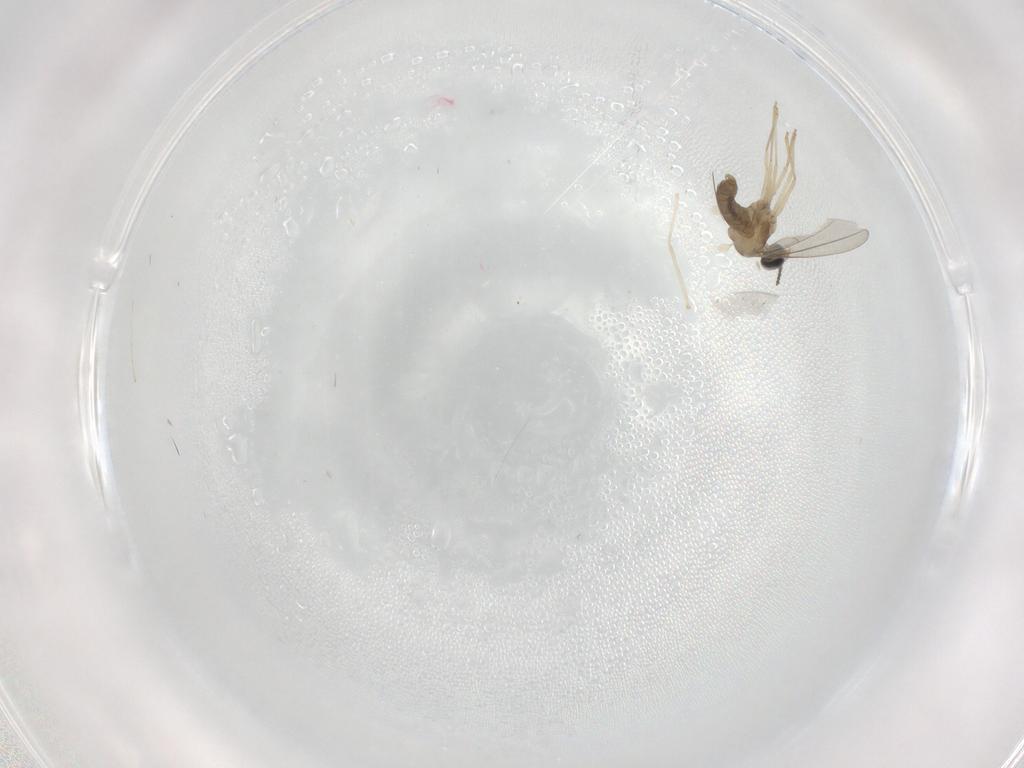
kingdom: Animalia
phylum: Arthropoda
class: Insecta
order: Diptera
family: Cecidomyiidae
